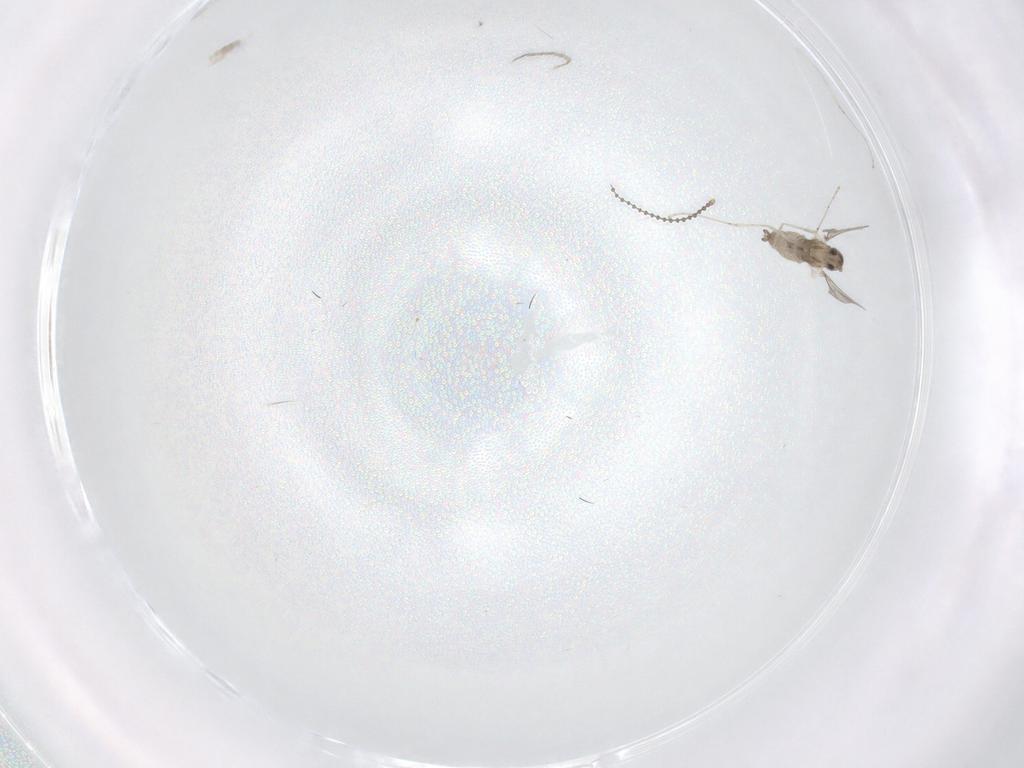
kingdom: Animalia
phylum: Arthropoda
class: Insecta
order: Diptera
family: Cecidomyiidae
